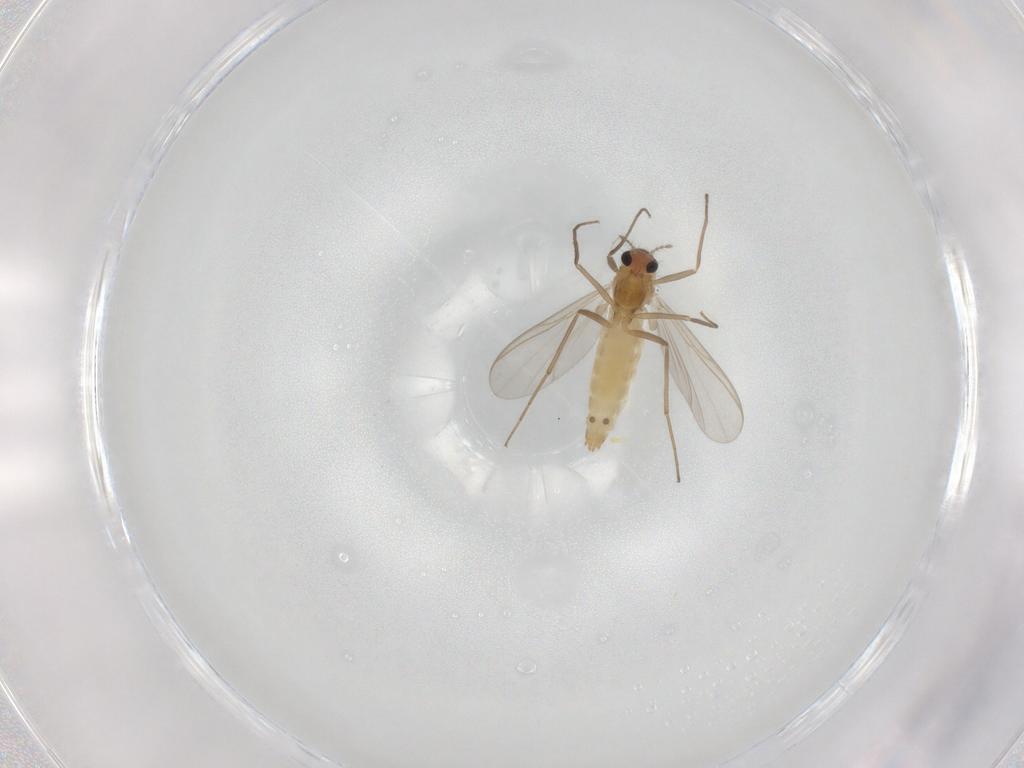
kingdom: Animalia
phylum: Arthropoda
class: Insecta
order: Diptera
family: Chironomidae
